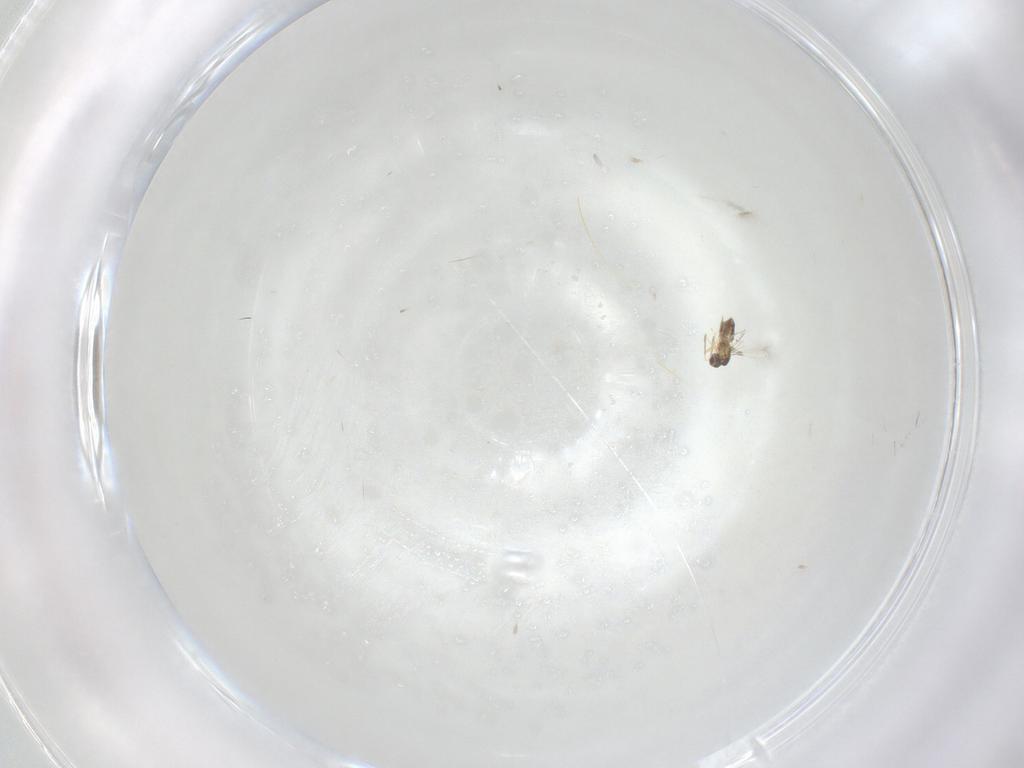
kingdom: Animalia
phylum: Arthropoda
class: Insecta
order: Hymenoptera
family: Mymaridae
